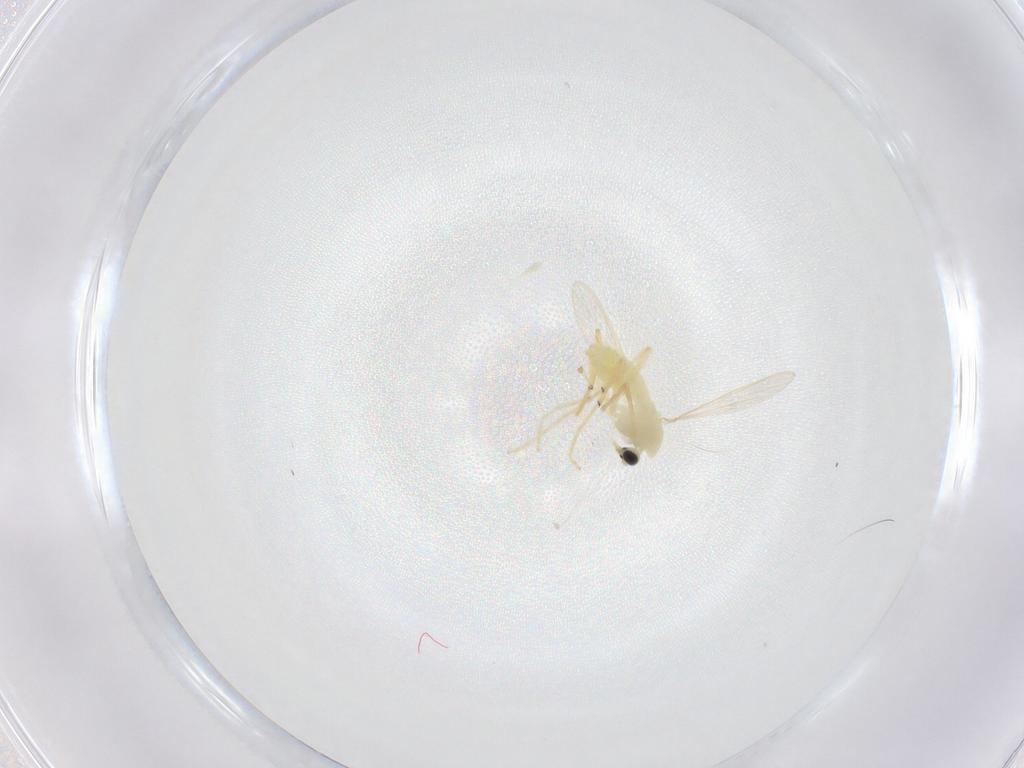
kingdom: Animalia
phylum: Arthropoda
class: Insecta
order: Diptera
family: Chironomidae
